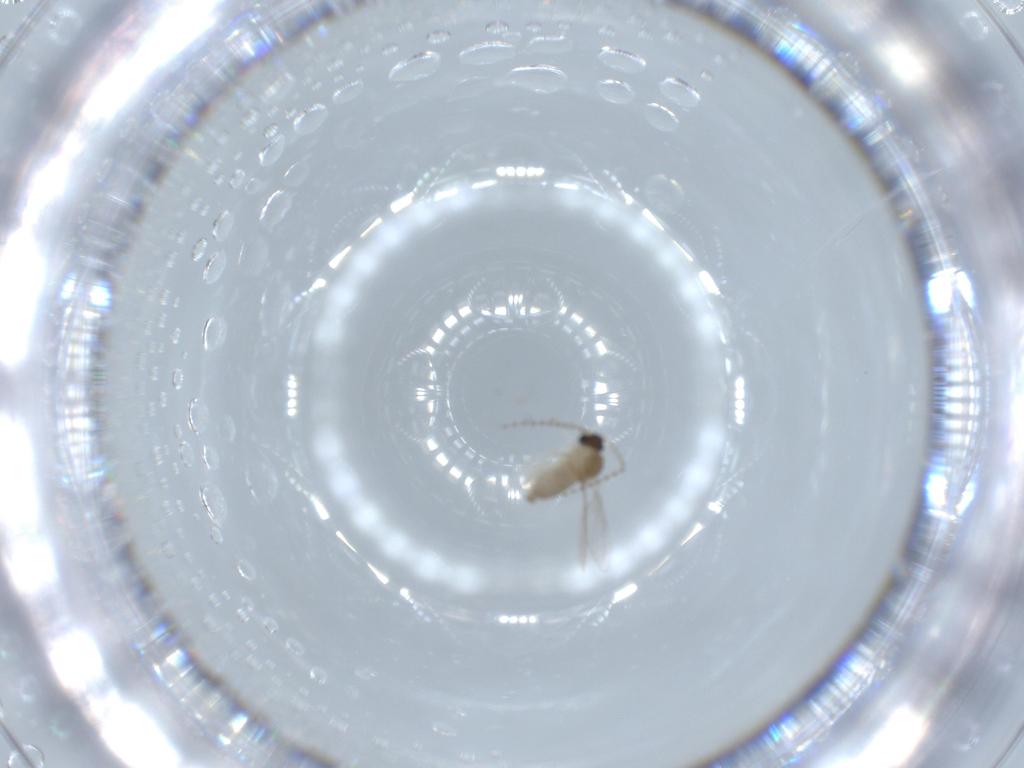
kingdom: Animalia
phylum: Arthropoda
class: Insecta
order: Diptera
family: Cecidomyiidae
